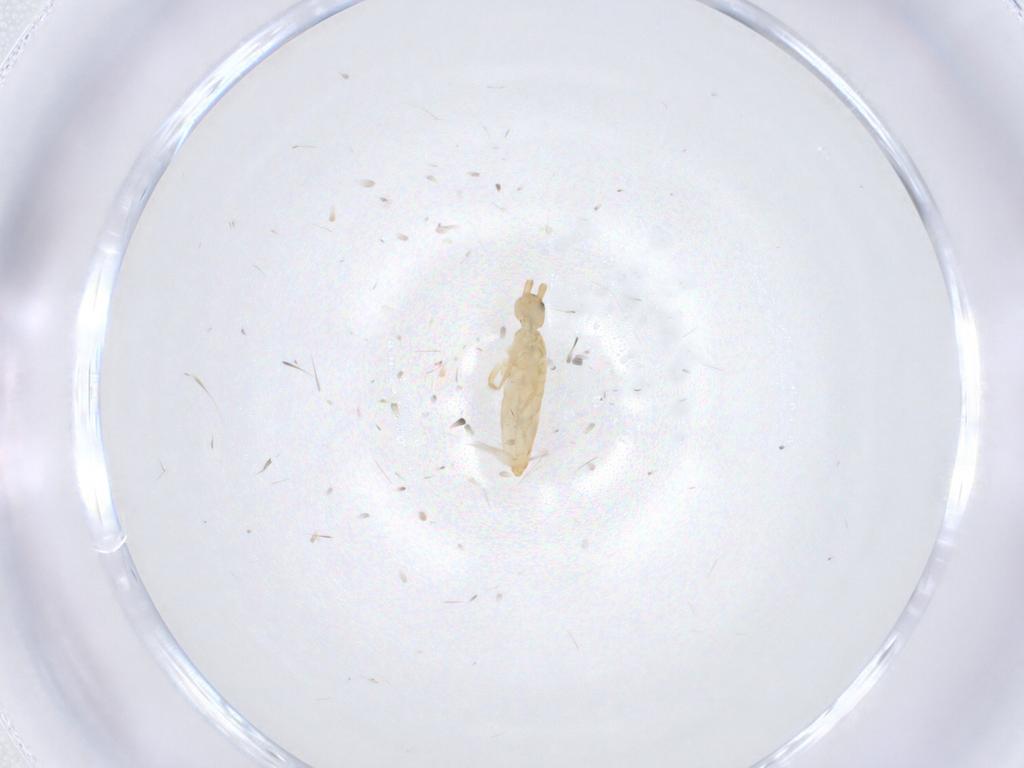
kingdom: Animalia
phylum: Arthropoda
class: Collembola
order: Entomobryomorpha
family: Entomobryidae
